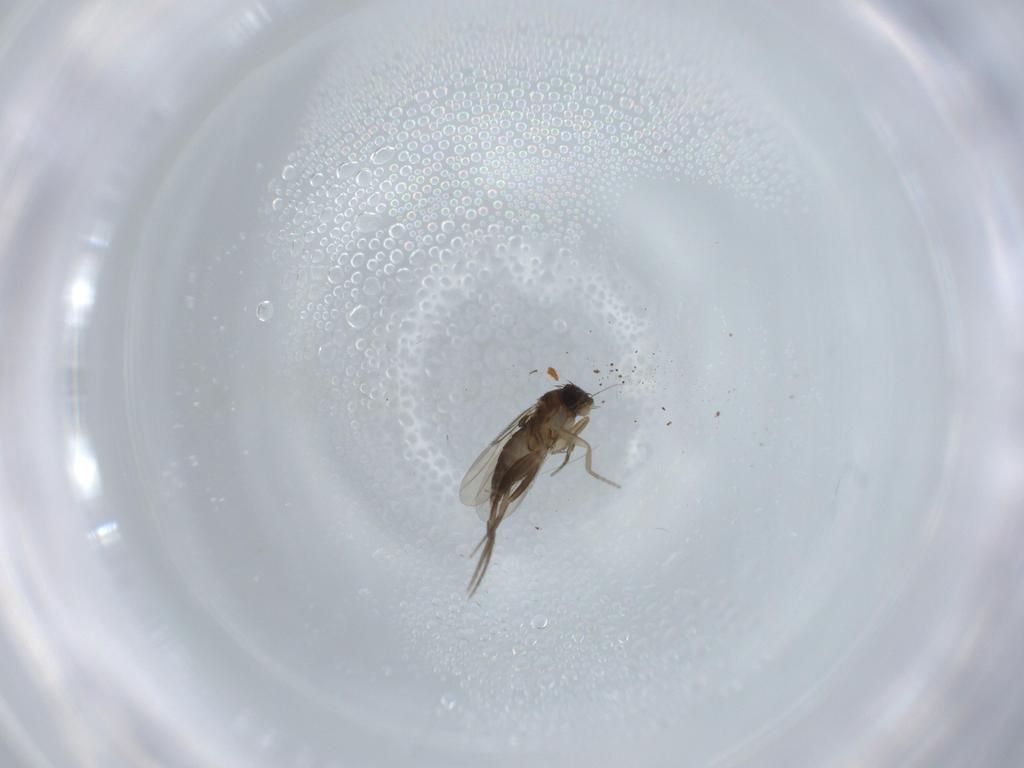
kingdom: Animalia
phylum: Arthropoda
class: Insecta
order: Diptera
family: Phoridae
